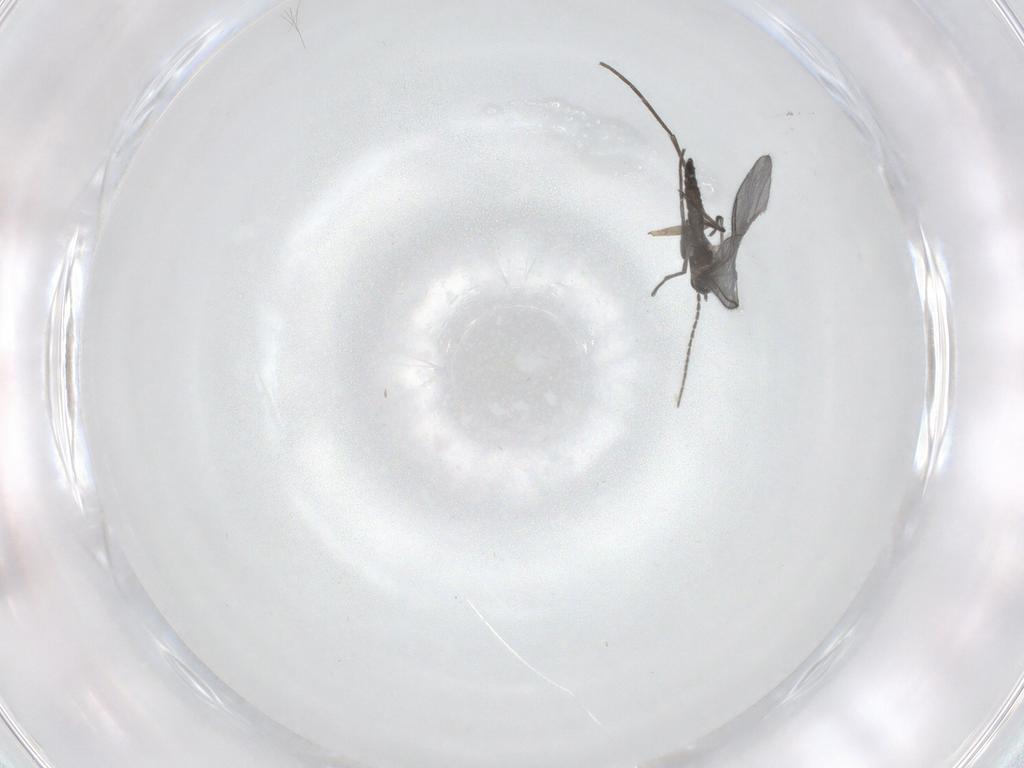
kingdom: Animalia
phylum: Arthropoda
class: Insecta
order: Diptera
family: Sciaridae
